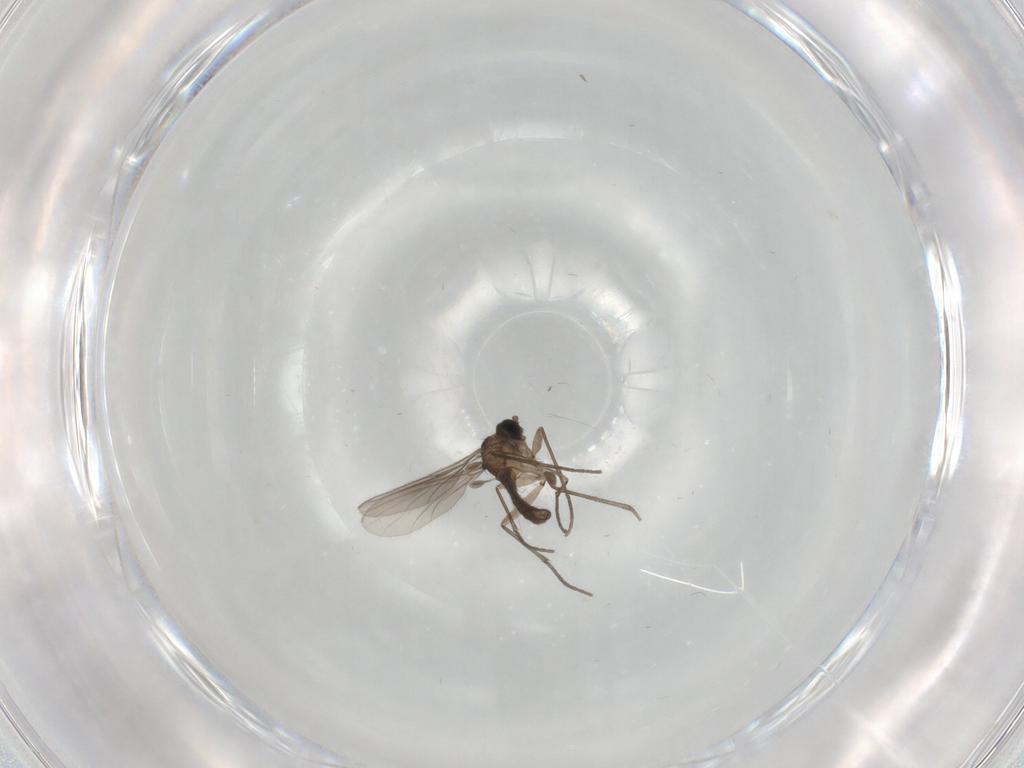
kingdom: Animalia
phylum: Arthropoda
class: Insecta
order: Diptera
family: Sciaridae
